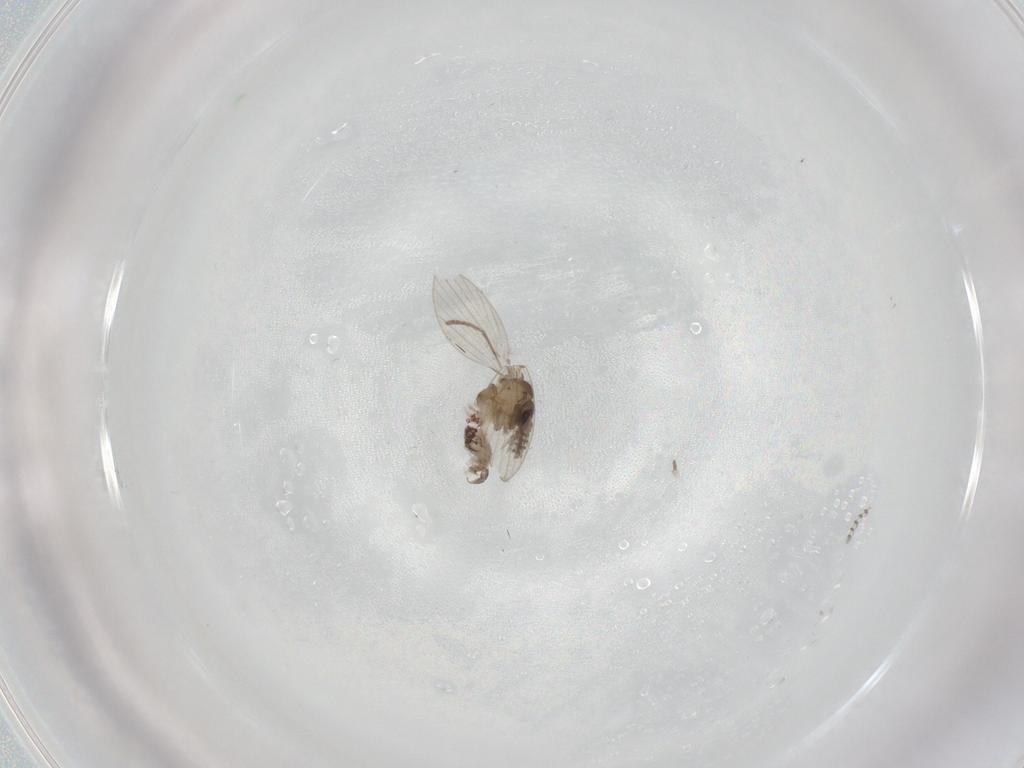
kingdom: Animalia
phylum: Arthropoda
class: Insecta
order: Diptera
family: Psychodidae
